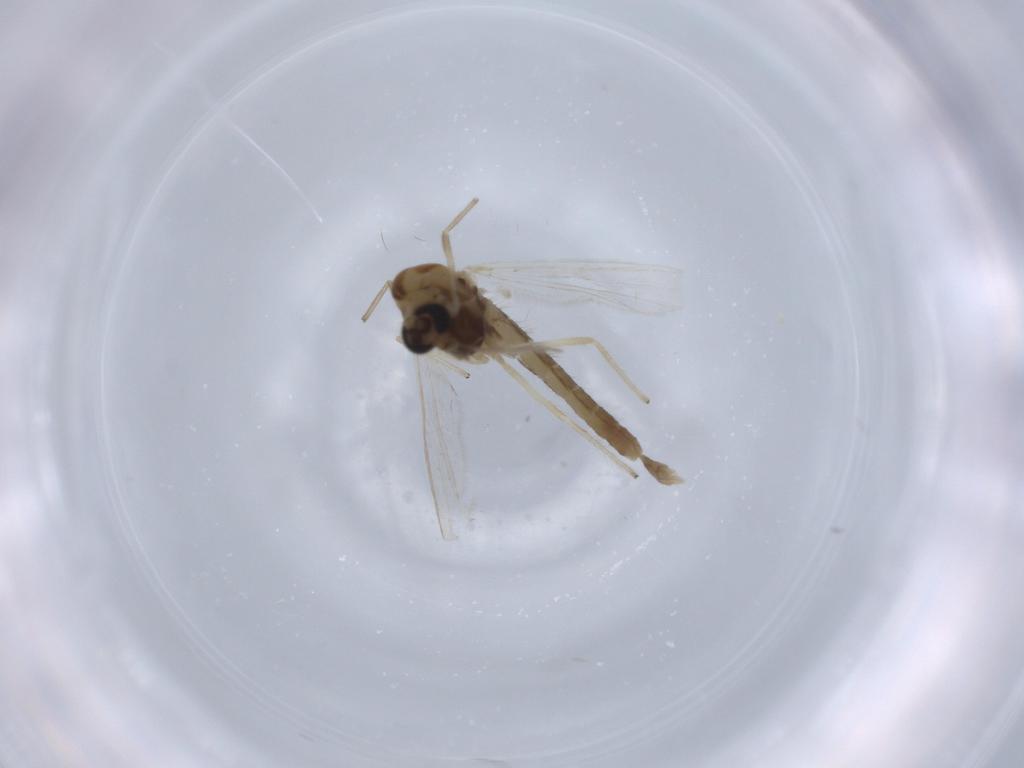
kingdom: Animalia
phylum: Arthropoda
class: Insecta
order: Diptera
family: Chironomidae
